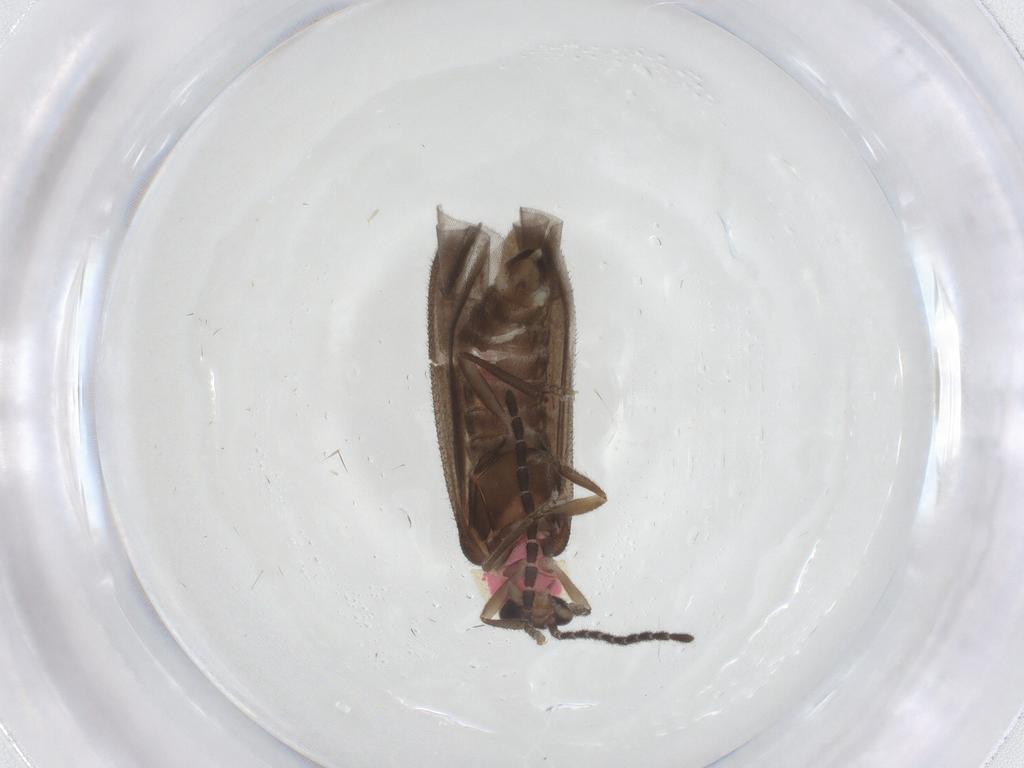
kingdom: Animalia
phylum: Arthropoda
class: Insecta
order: Coleoptera
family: Chrysomelidae
